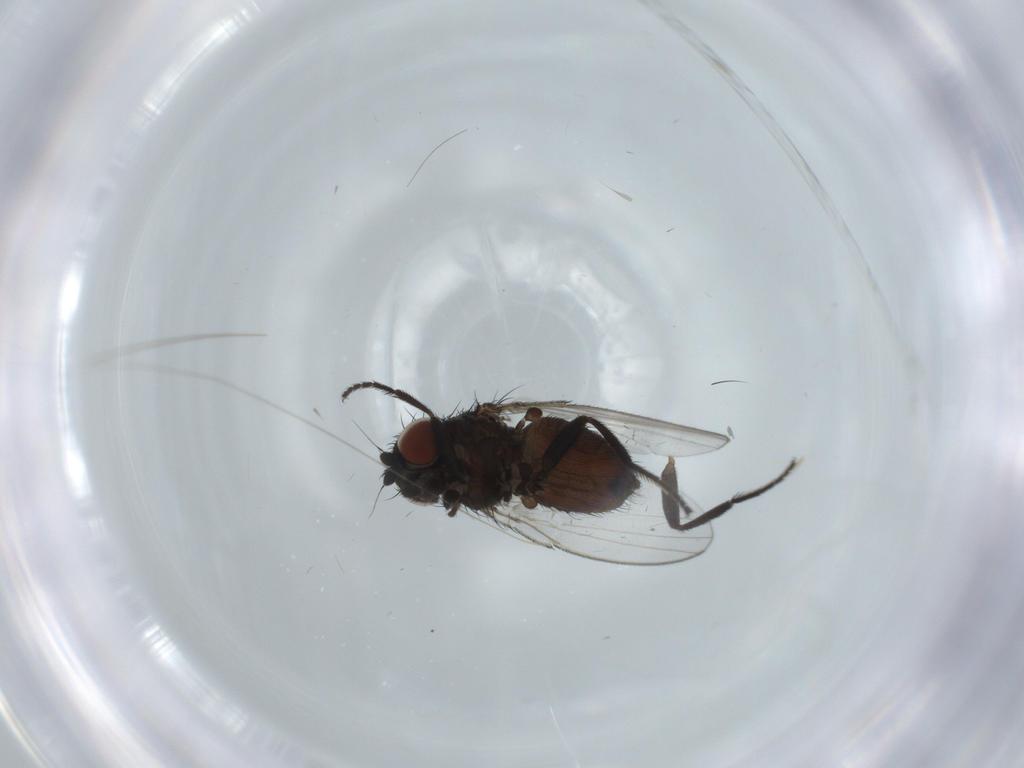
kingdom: Animalia
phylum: Arthropoda
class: Insecta
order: Diptera
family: Milichiidae
